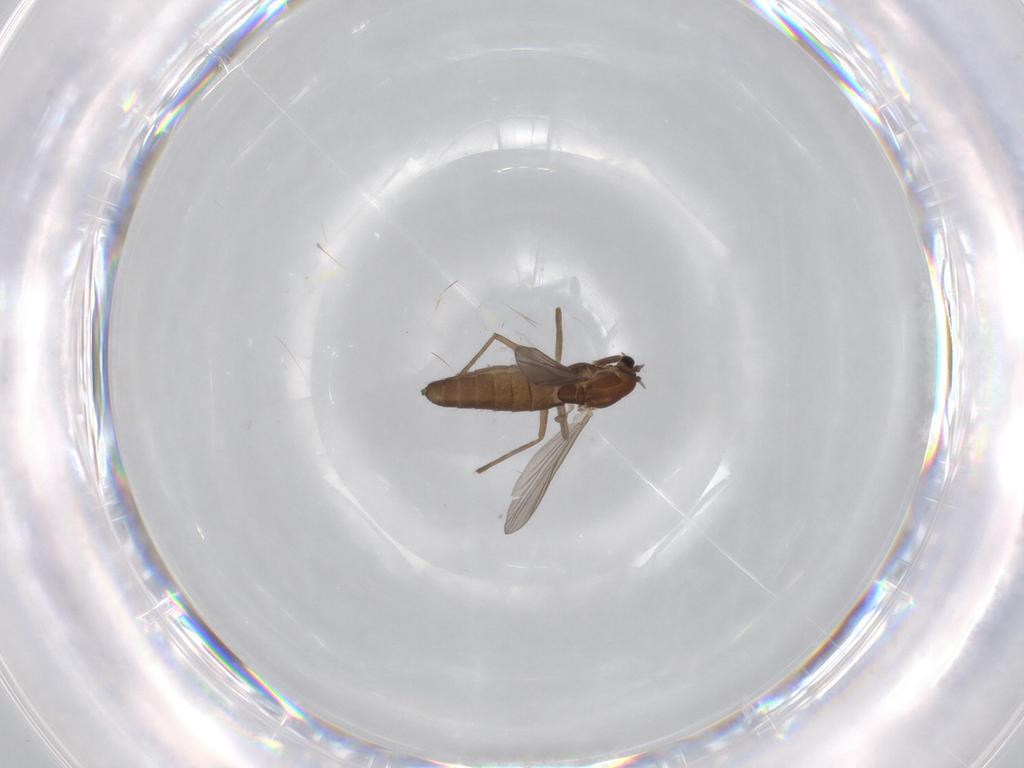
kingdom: Animalia
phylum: Arthropoda
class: Insecta
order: Diptera
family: Chironomidae
